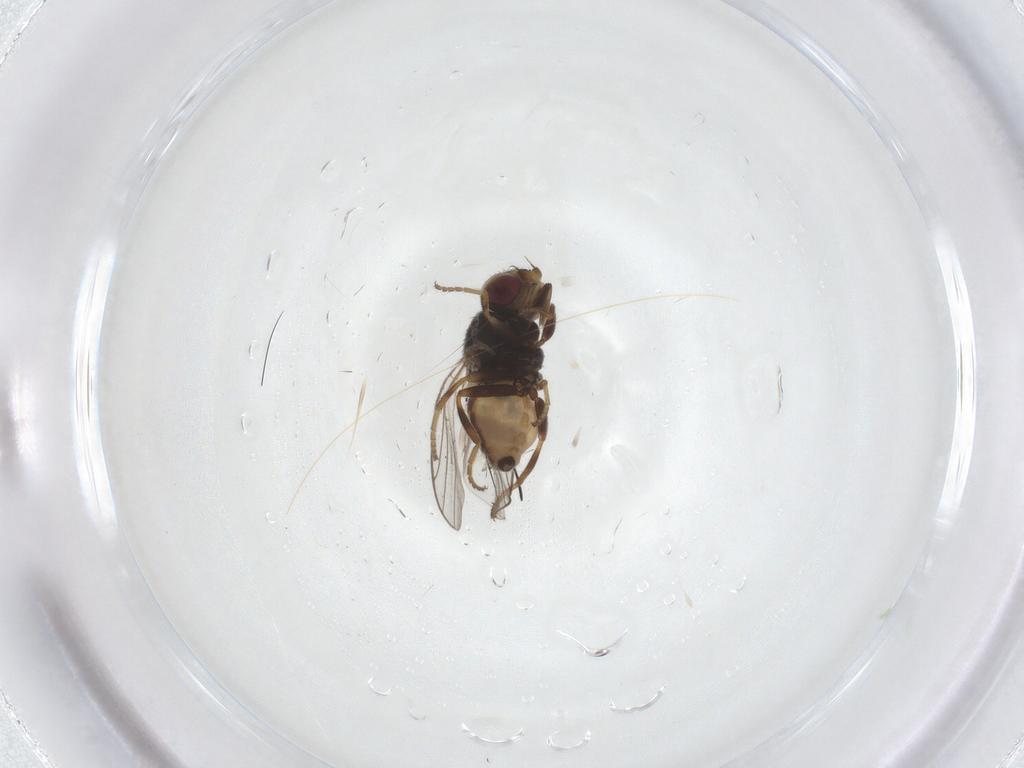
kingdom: Animalia
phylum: Arthropoda
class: Insecta
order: Diptera
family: Chloropidae
